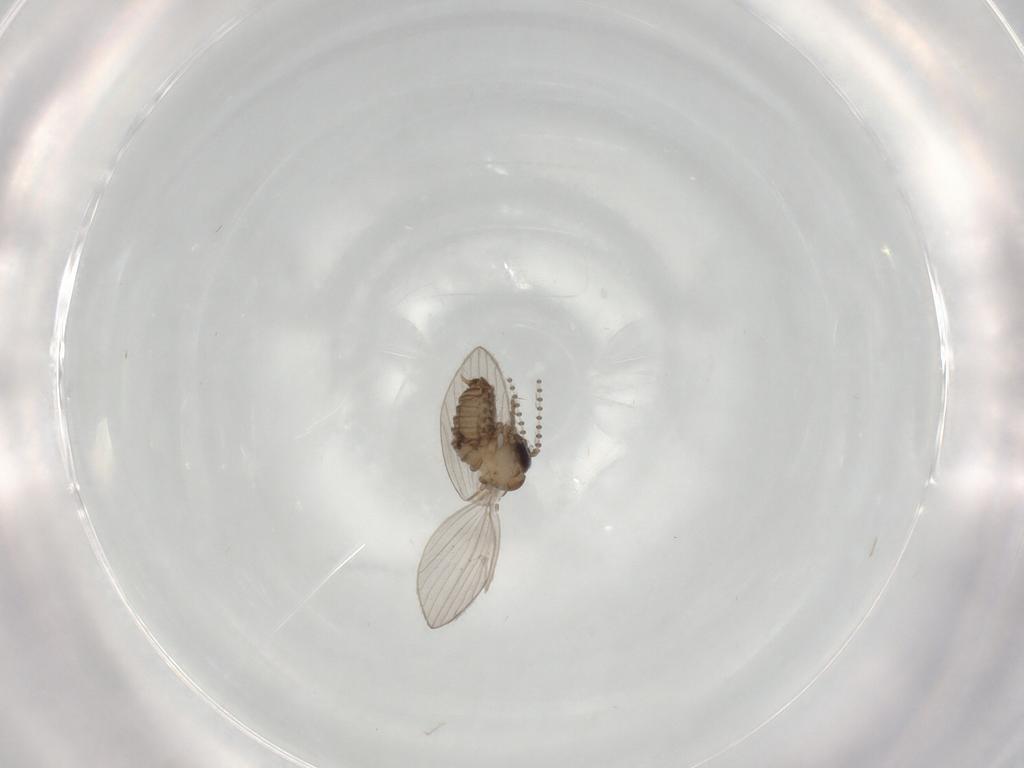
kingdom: Animalia
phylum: Arthropoda
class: Insecta
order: Diptera
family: Psychodidae
